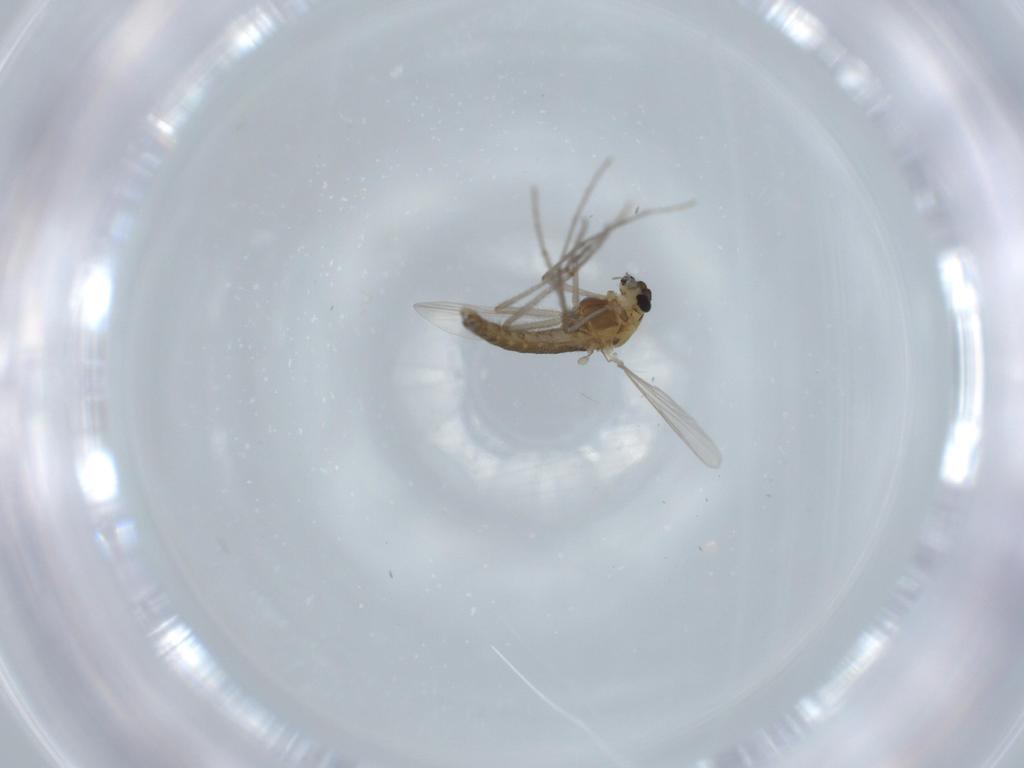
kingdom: Animalia
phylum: Arthropoda
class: Insecta
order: Diptera
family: Chironomidae
